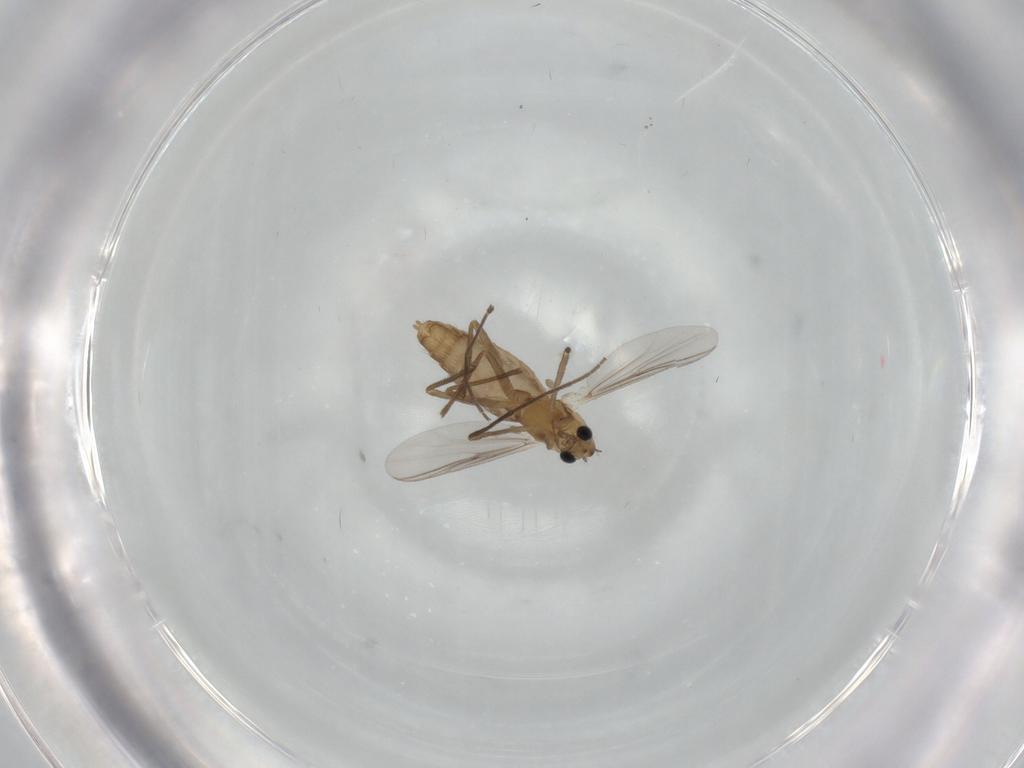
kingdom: Animalia
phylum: Arthropoda
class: Insecta
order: Diptera
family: Chironomidae
